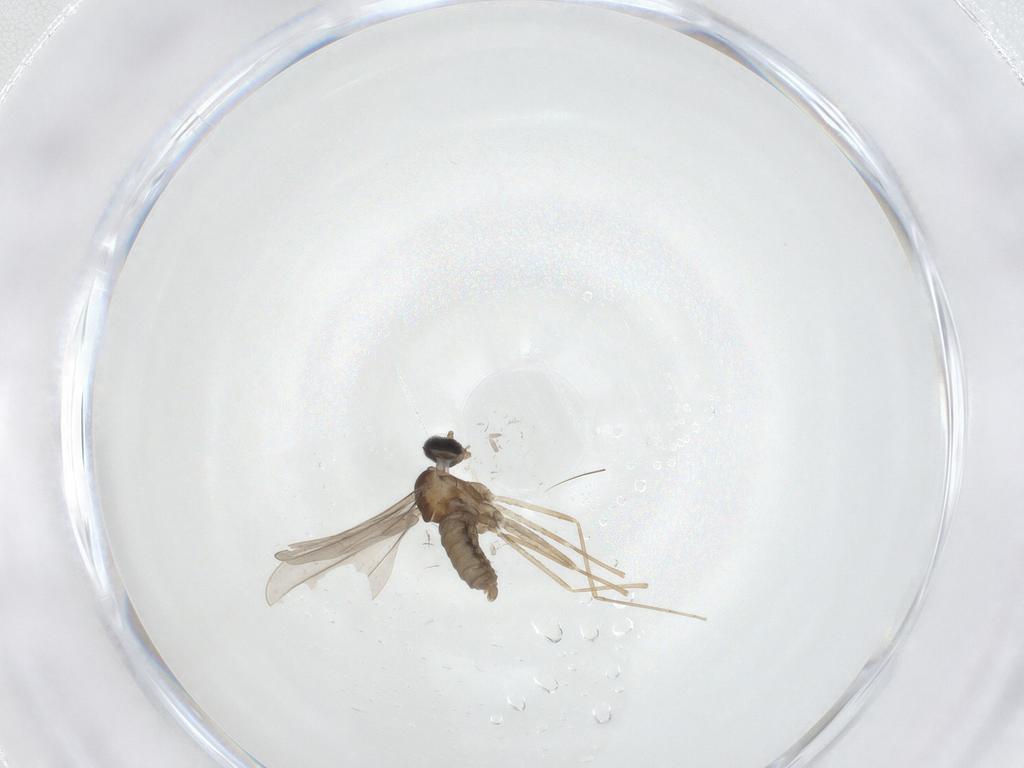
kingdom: Animalia
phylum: Arthropoda
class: Insecta
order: Diptera
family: Cecidomyiidae
